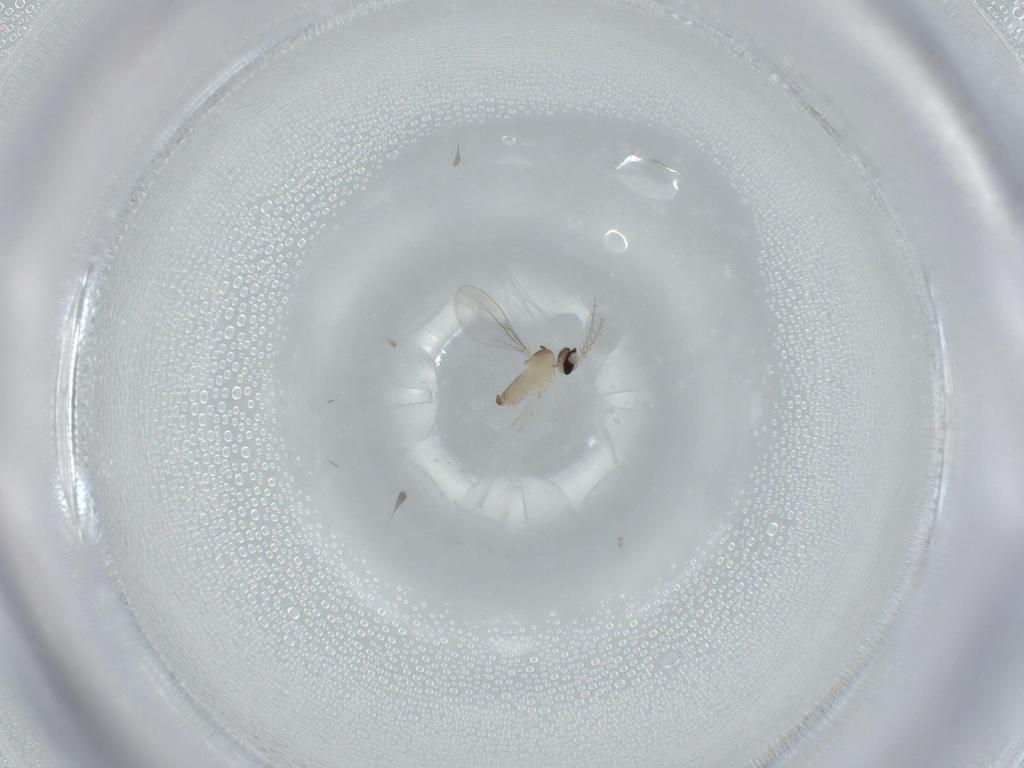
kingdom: Animalia
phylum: Arthropoda
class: Insecta
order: Diptera
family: Cecidomyiidae
